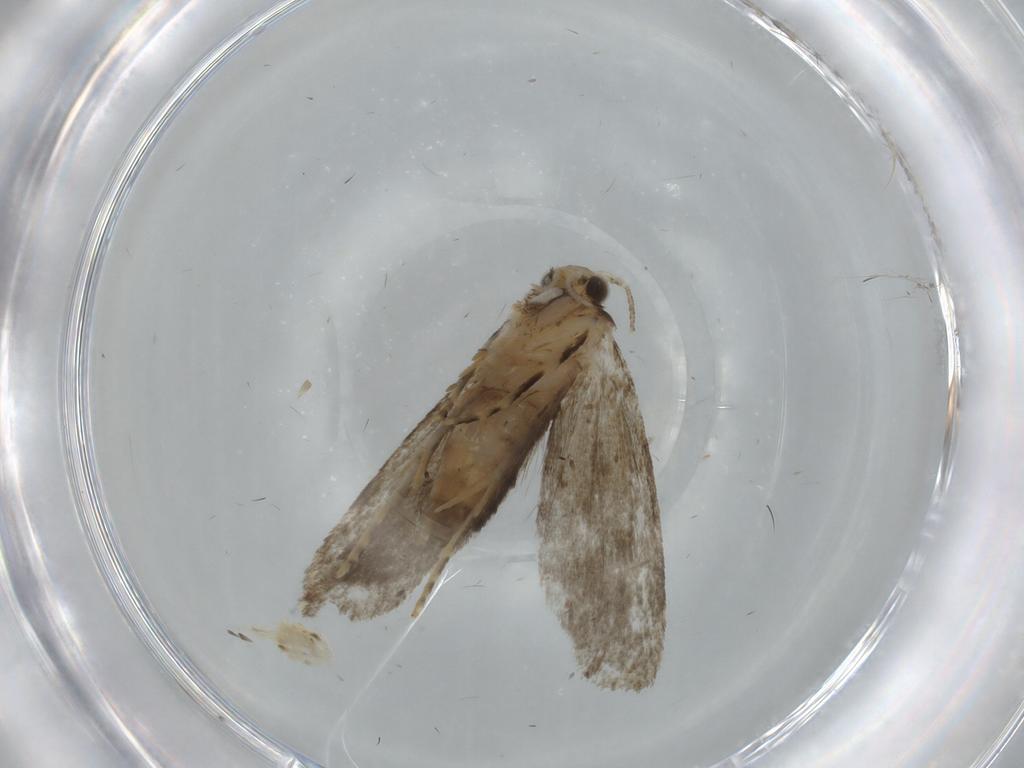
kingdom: Animalia
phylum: Arthropoda
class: Insecta
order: Lepidoptera
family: Tineidae
